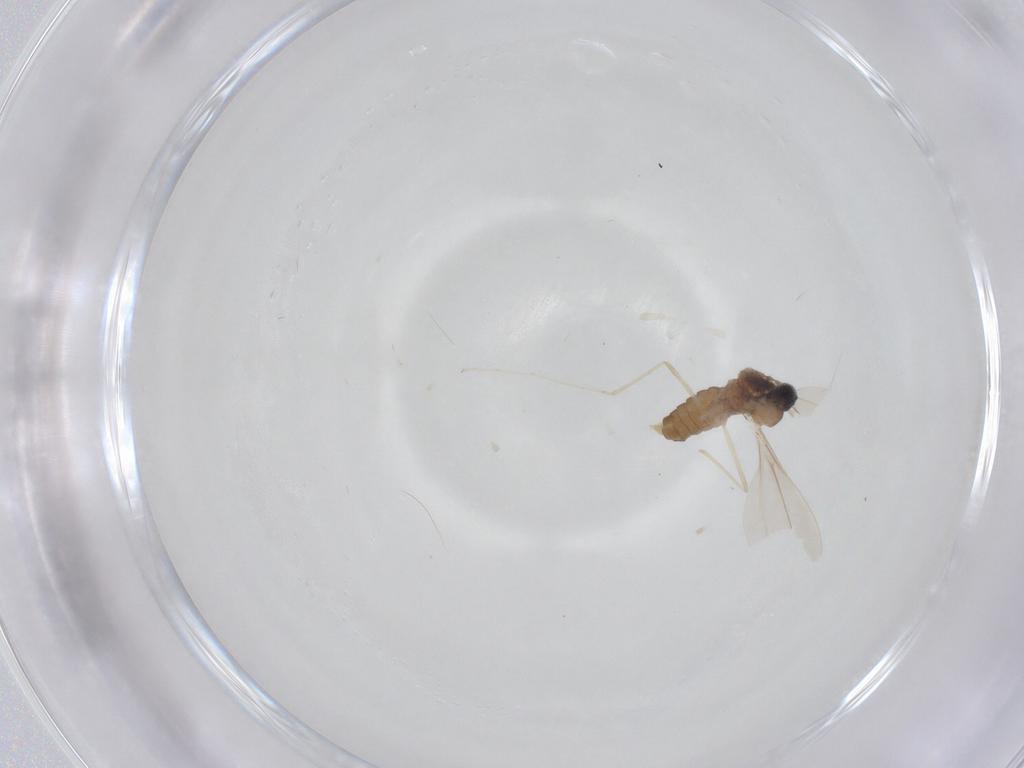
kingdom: Animalia
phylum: Arthropoda
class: Insecta
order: Diptera
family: Cecidomyiidae
